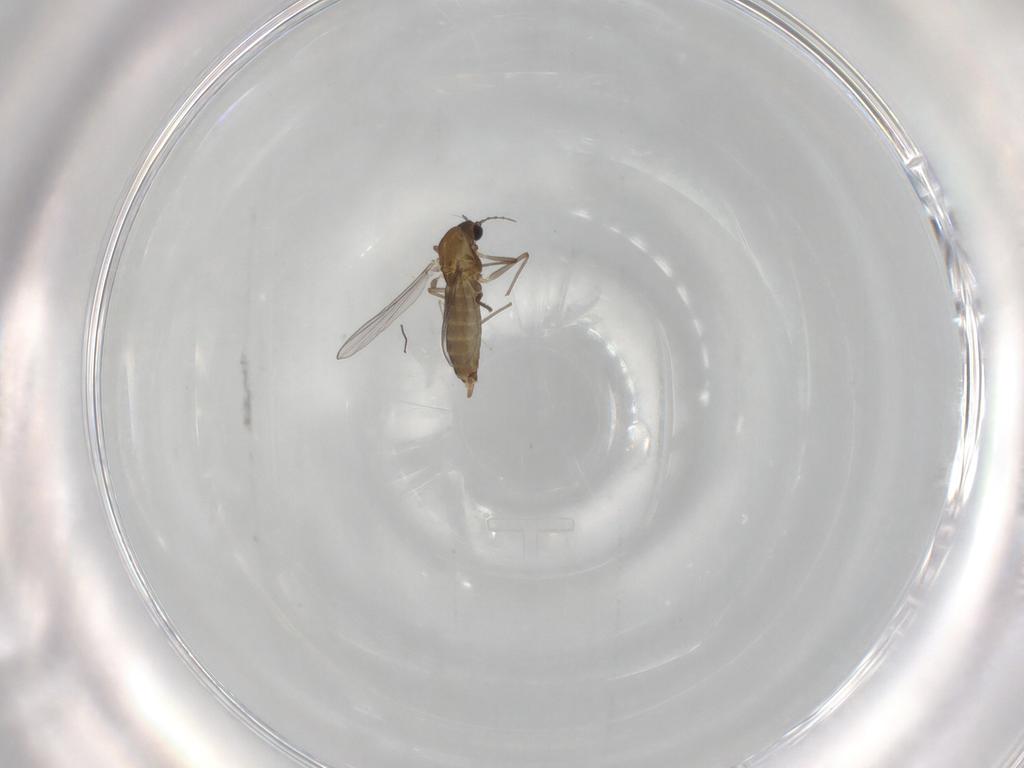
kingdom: Animalia
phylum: Arthropoda
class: Insecta
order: Diptera
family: Chironomidae
